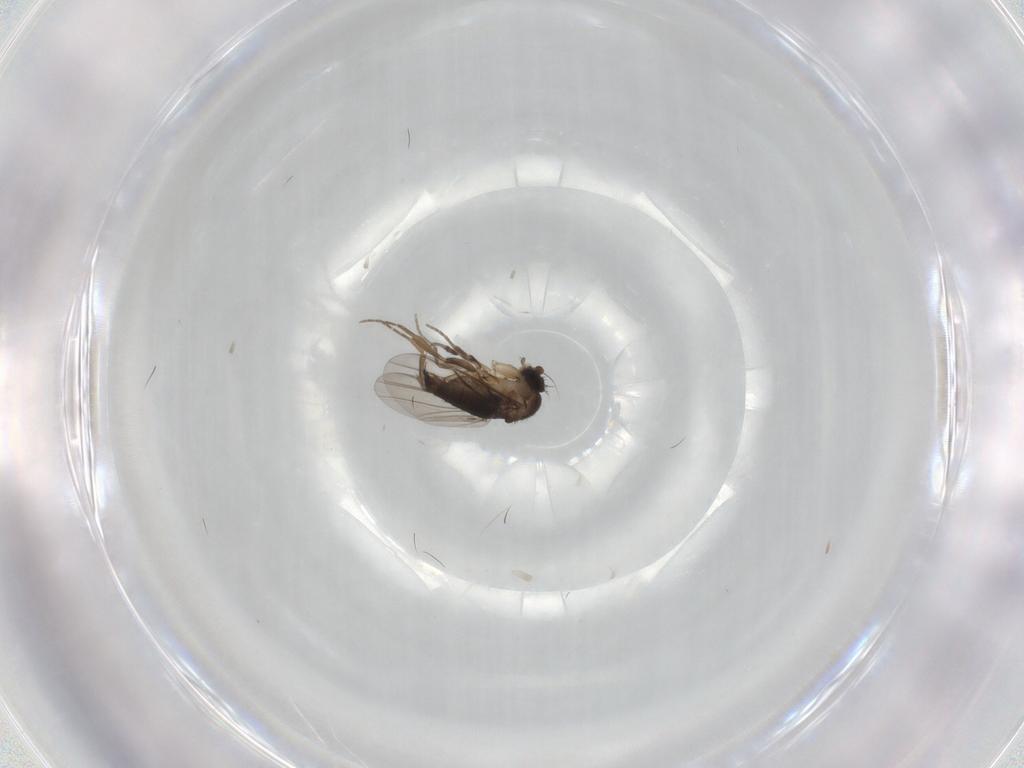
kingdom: Animalia
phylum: Arthropoda
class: Insecta
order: Diptera
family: Phoridae
